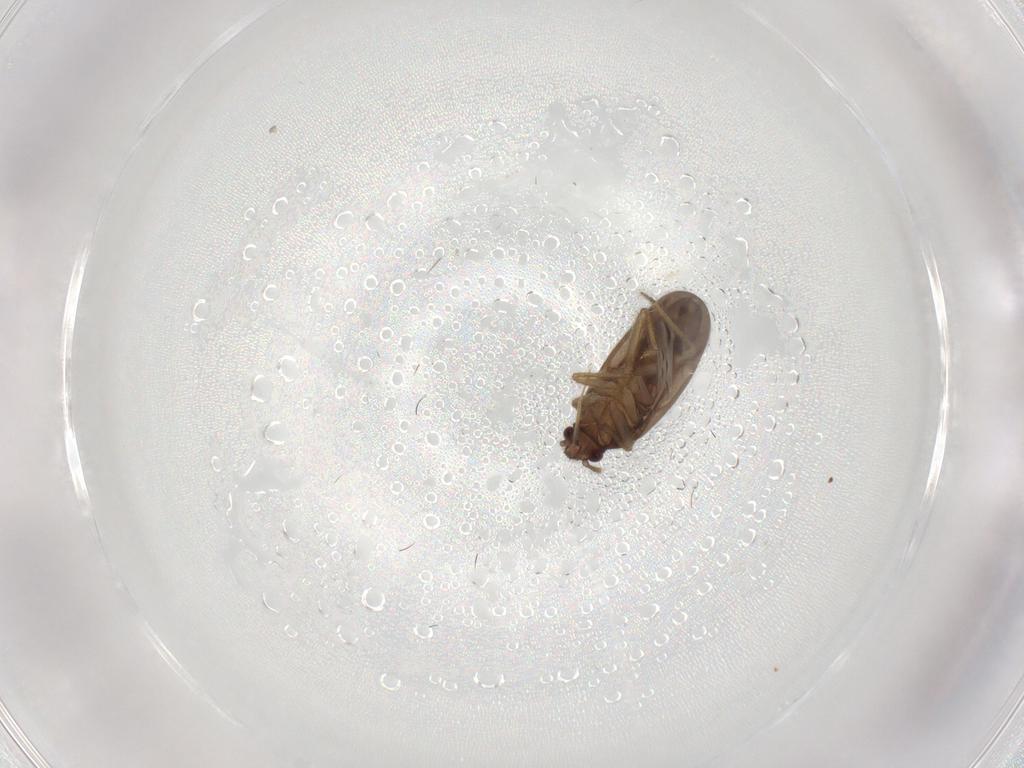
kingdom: Animalia
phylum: Arthropoda
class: Insecta
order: Hemiptera
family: Ceratocombidae
